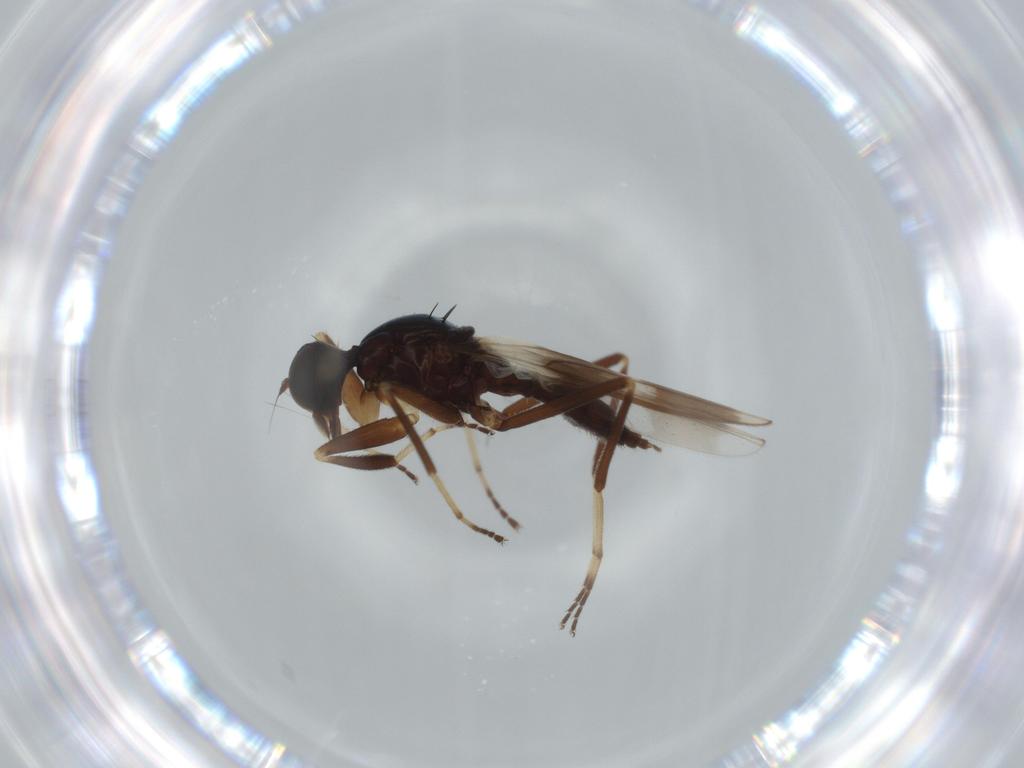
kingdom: Animalia
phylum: Arthropoda
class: Insecta
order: Diptera
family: Hybotidae
